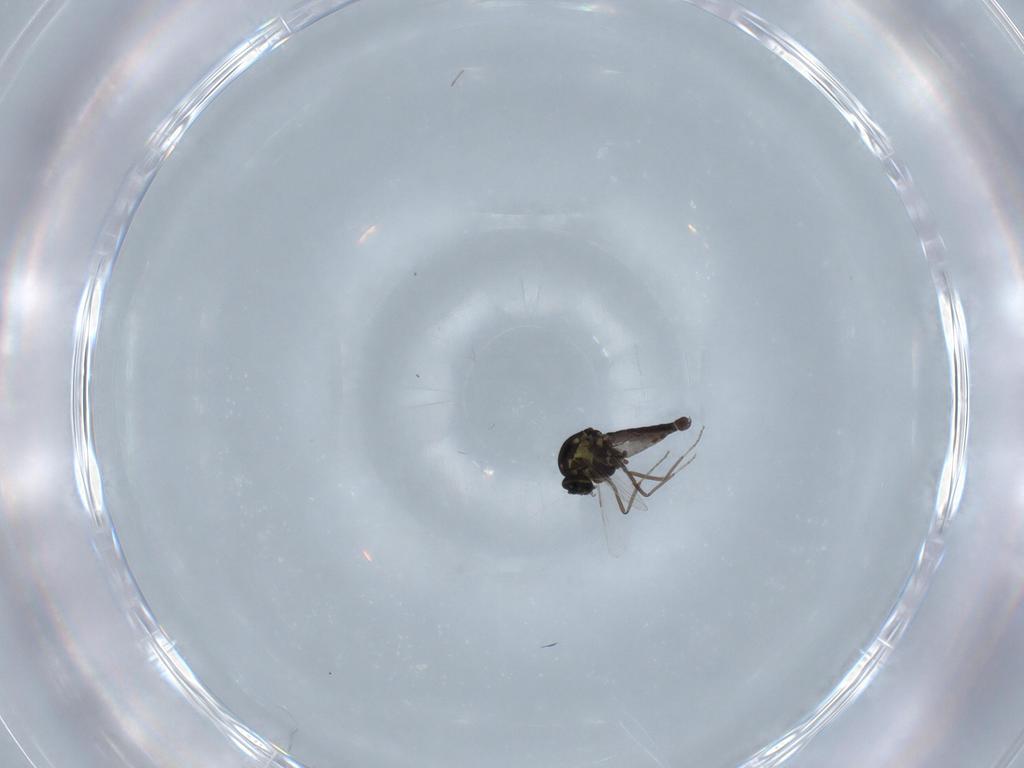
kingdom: Animalia
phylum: Arthropoda
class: Insecta
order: Diptera
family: Ceratopogonidae
